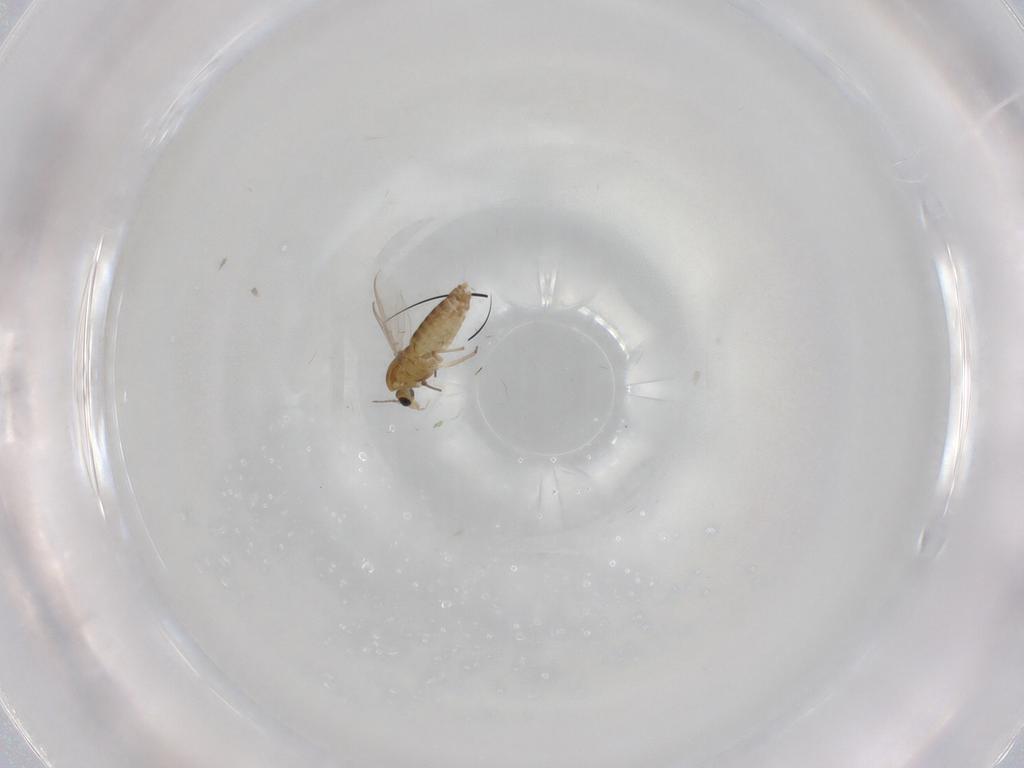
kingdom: Animalia
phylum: Arthropoda
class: Insecta
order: Diptera
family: Chironomidae
